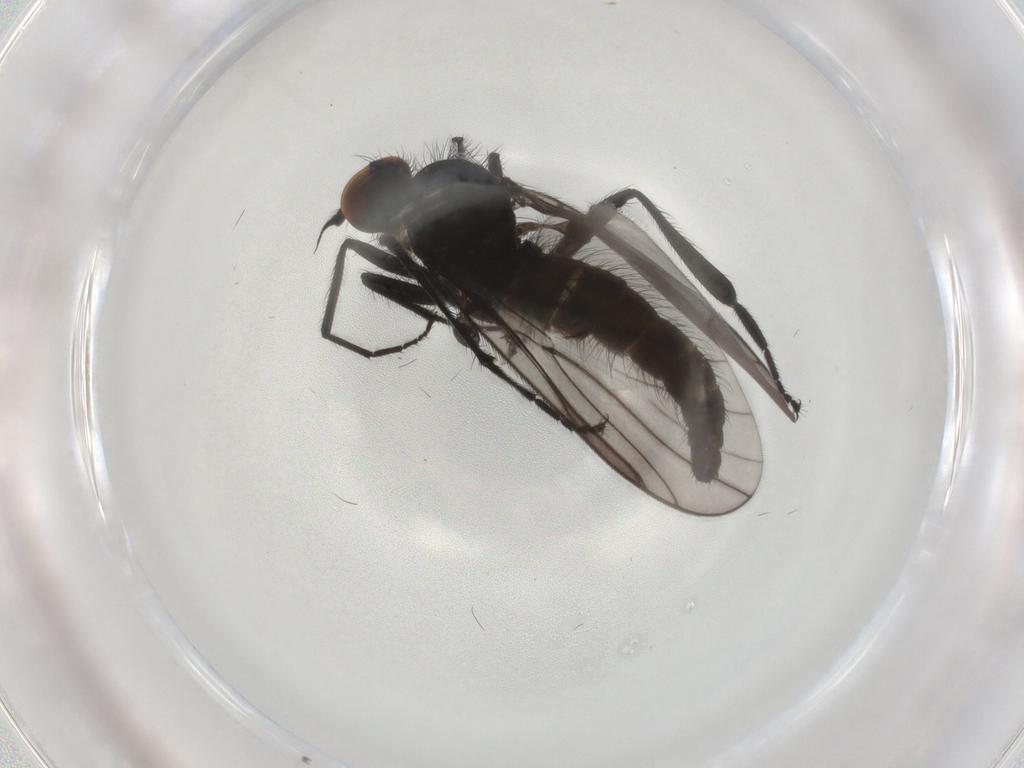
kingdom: Animalia
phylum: Arthropoda
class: Insecta
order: Diptera
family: Hybotidae
